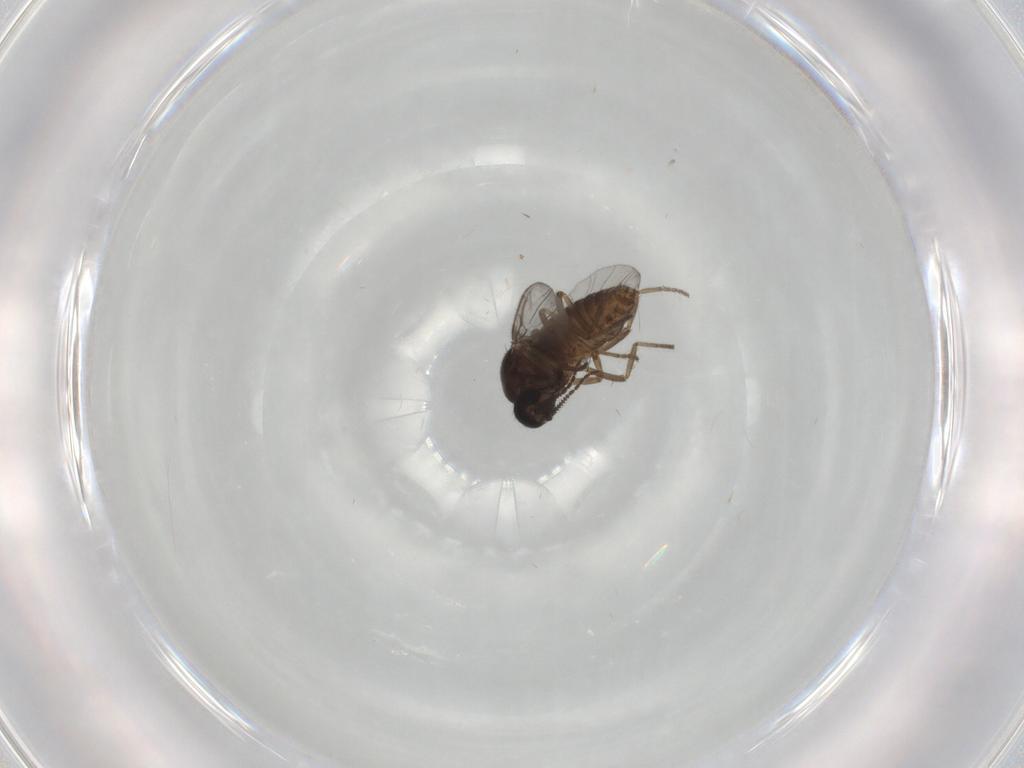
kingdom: Animalia
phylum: Arthropoda
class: Insecta
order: Diptera
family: Ceratopogonidae
